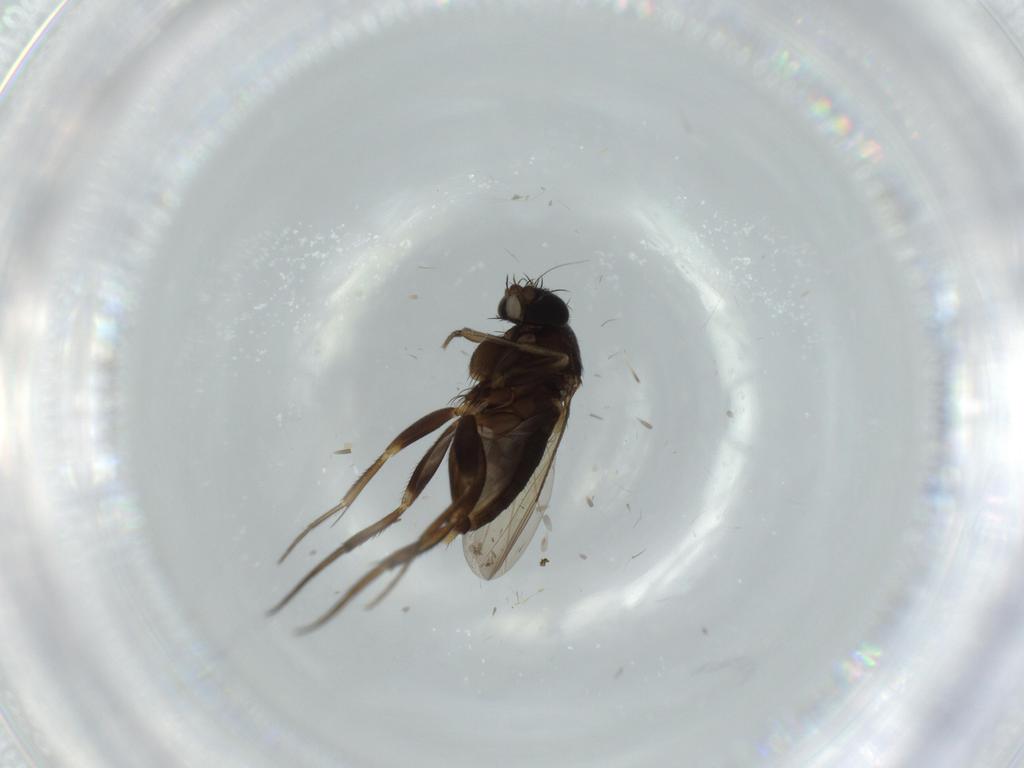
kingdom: Animalia
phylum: Arthropoda
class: Insecta
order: Diptera
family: Phoridae
